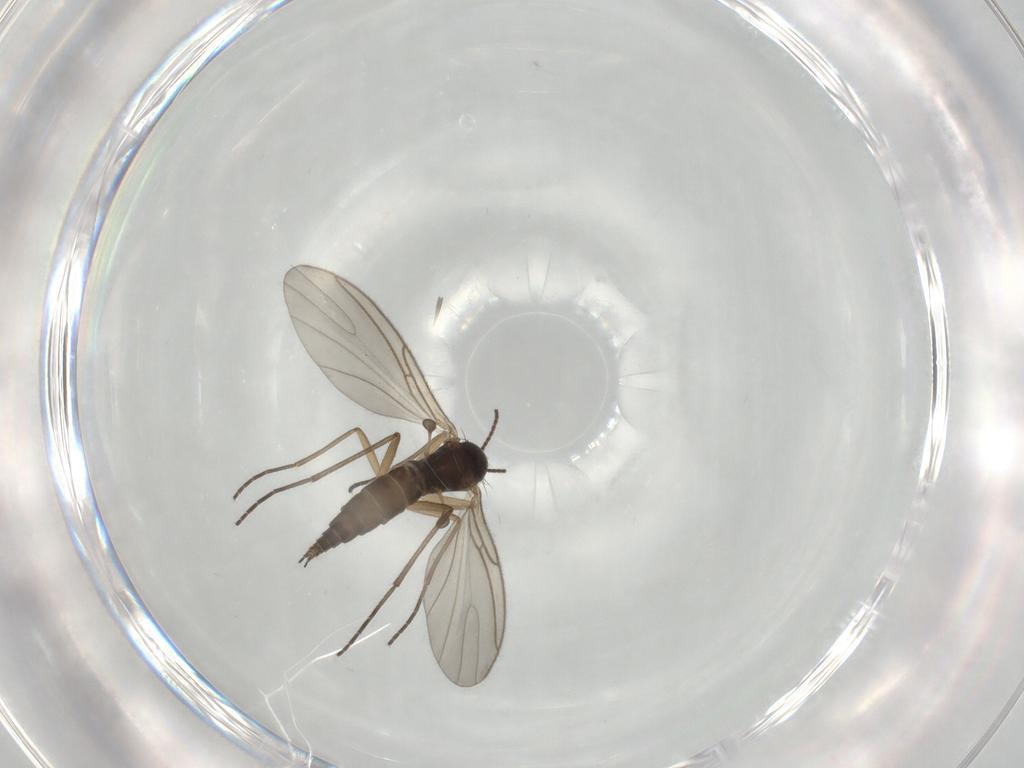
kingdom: Animalia
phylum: Arthropoda
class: Insecta
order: Diptera
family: Sciaridae
